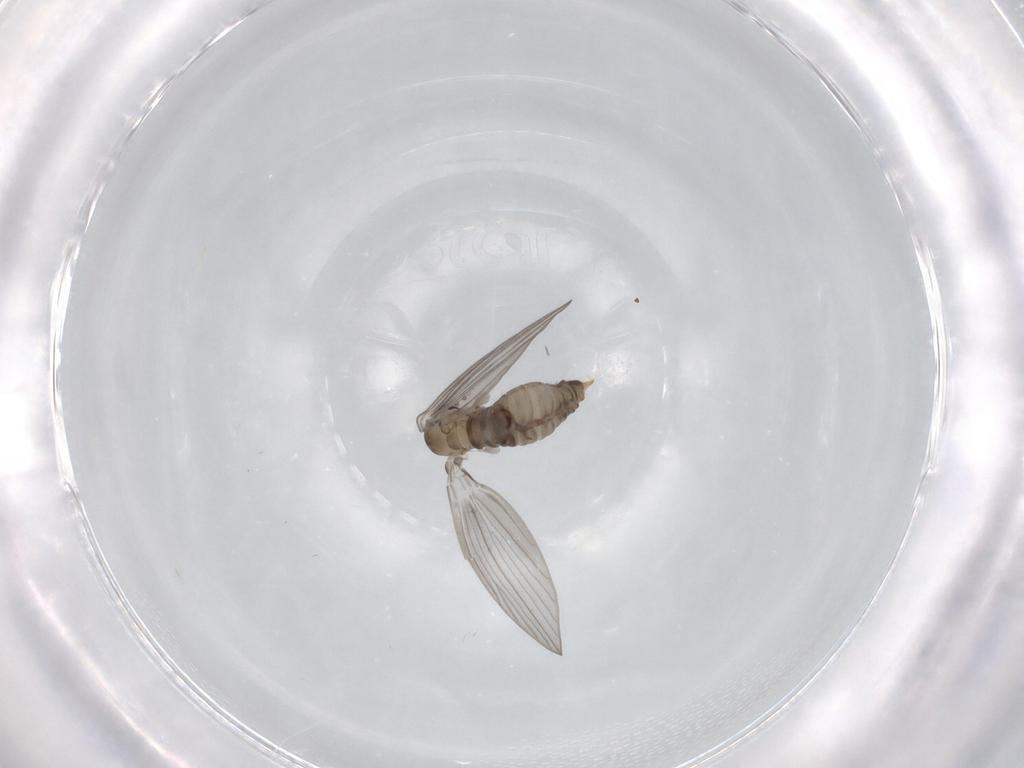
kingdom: Animalia
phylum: Arthropoda
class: Insecta
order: Diptera
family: Psychodidae
